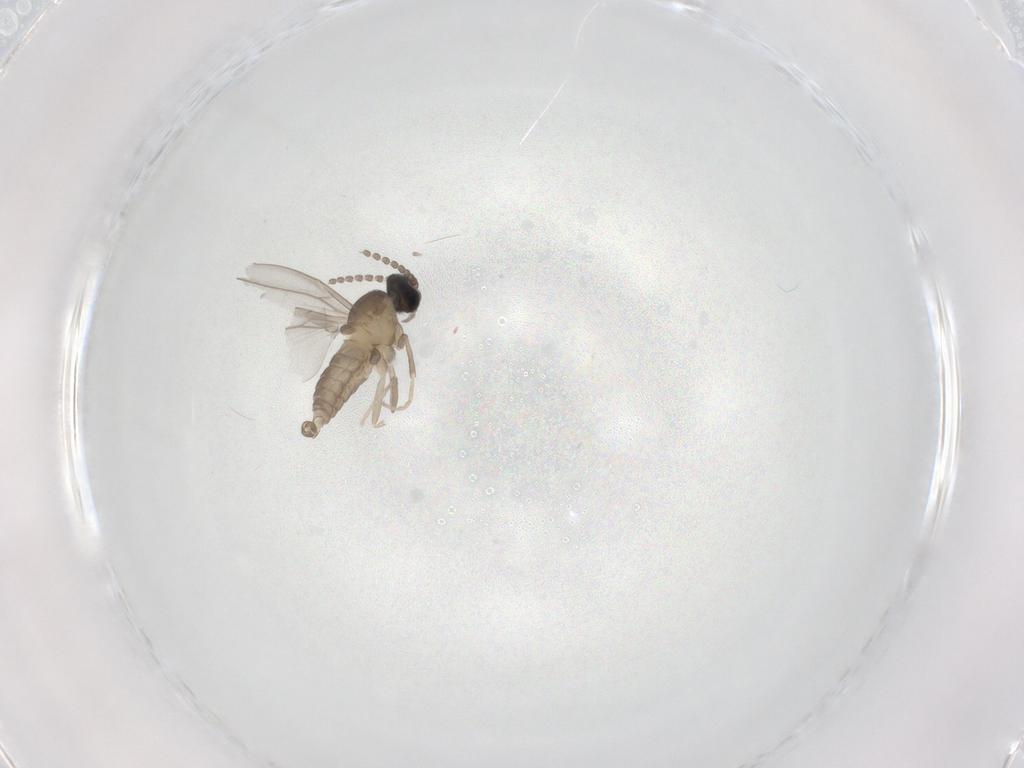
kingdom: Animalia
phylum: Arthropoda
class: Insecta
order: Diptera
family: Cecidomyiidae
